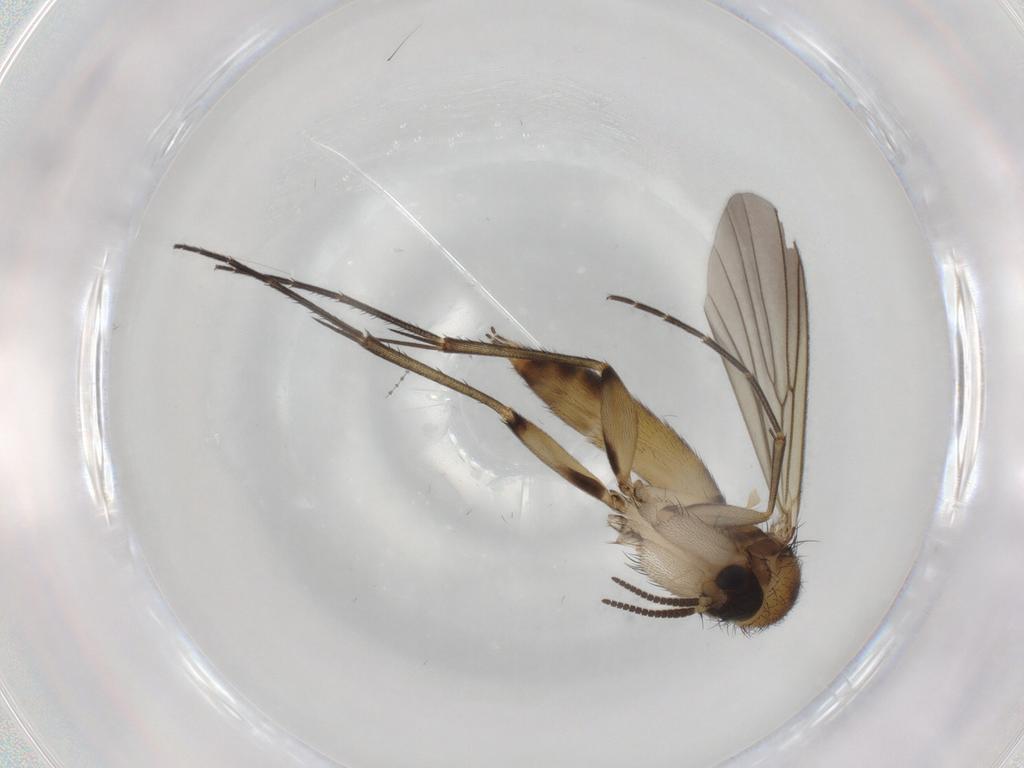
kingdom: Animalia
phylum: Arthropoda
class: Insecta
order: Diptera
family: Mycetophilidae
